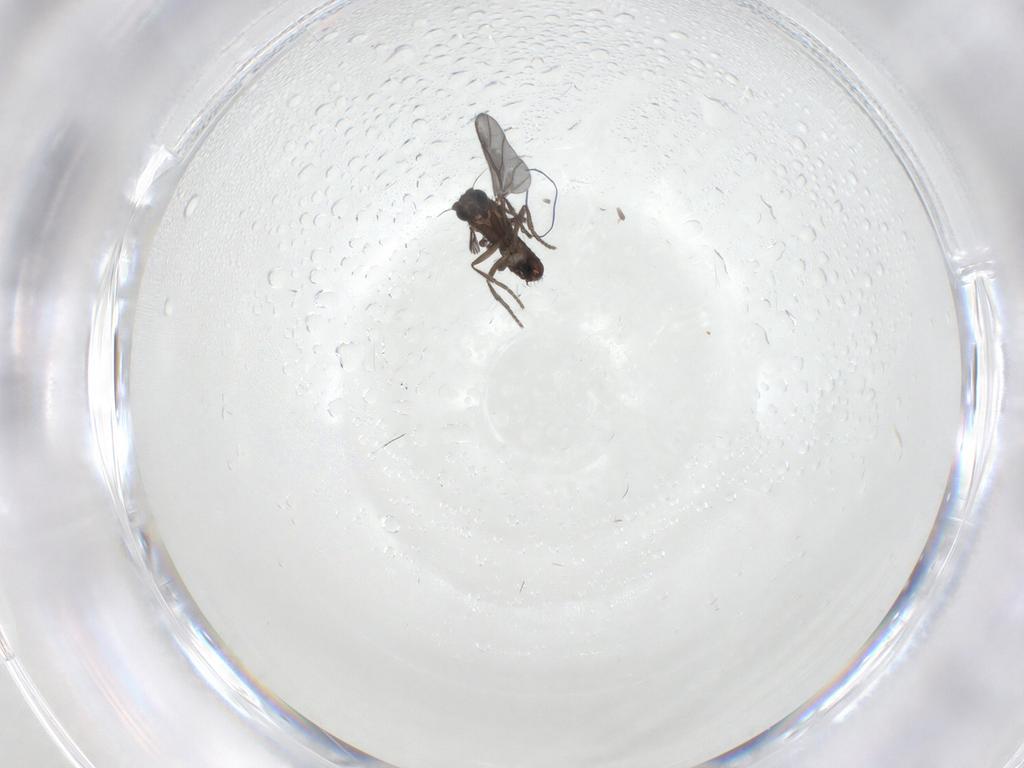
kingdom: Animalia
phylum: Arthropoda
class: Insecta
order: Diptera
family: Phoridae
